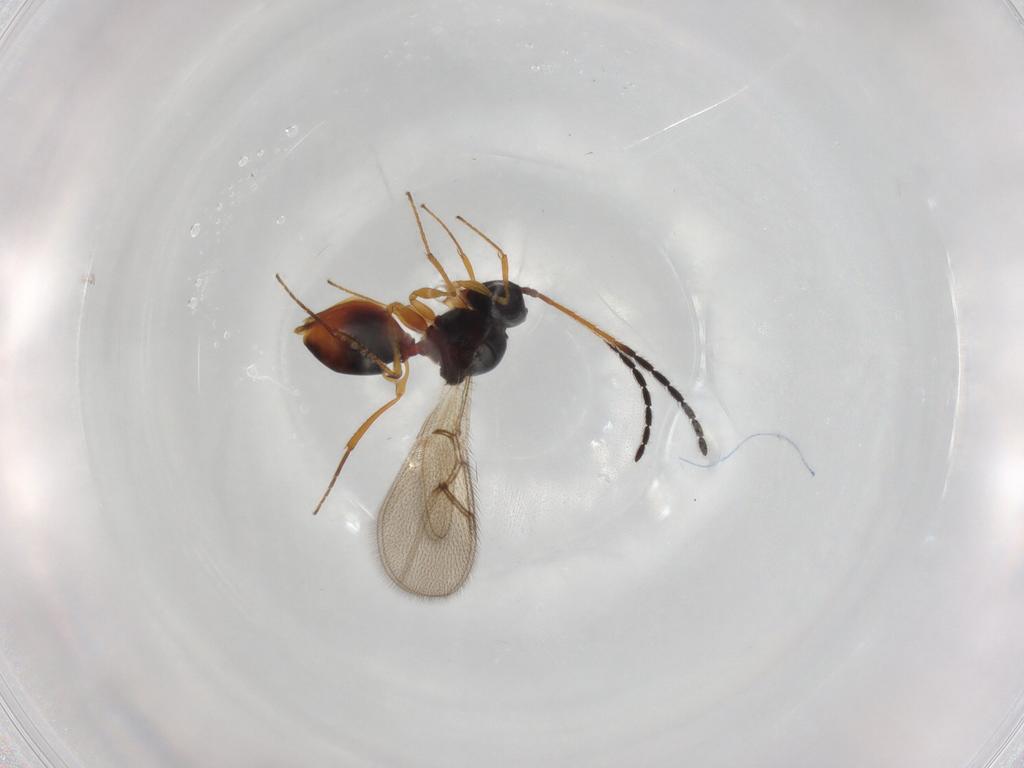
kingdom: Animalia
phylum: Arthropoda
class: Insecta
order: Hymenoptera
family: Figitidae
